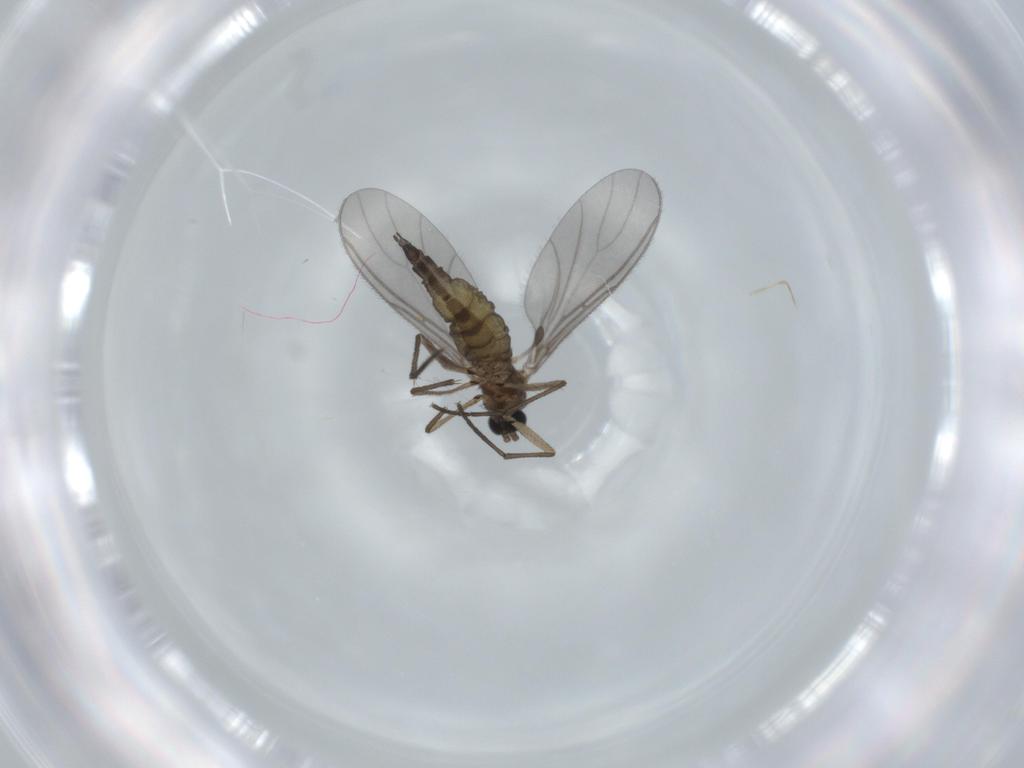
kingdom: Animalia
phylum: Arthropoda
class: Insecta
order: Diptera
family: Sciaridae
